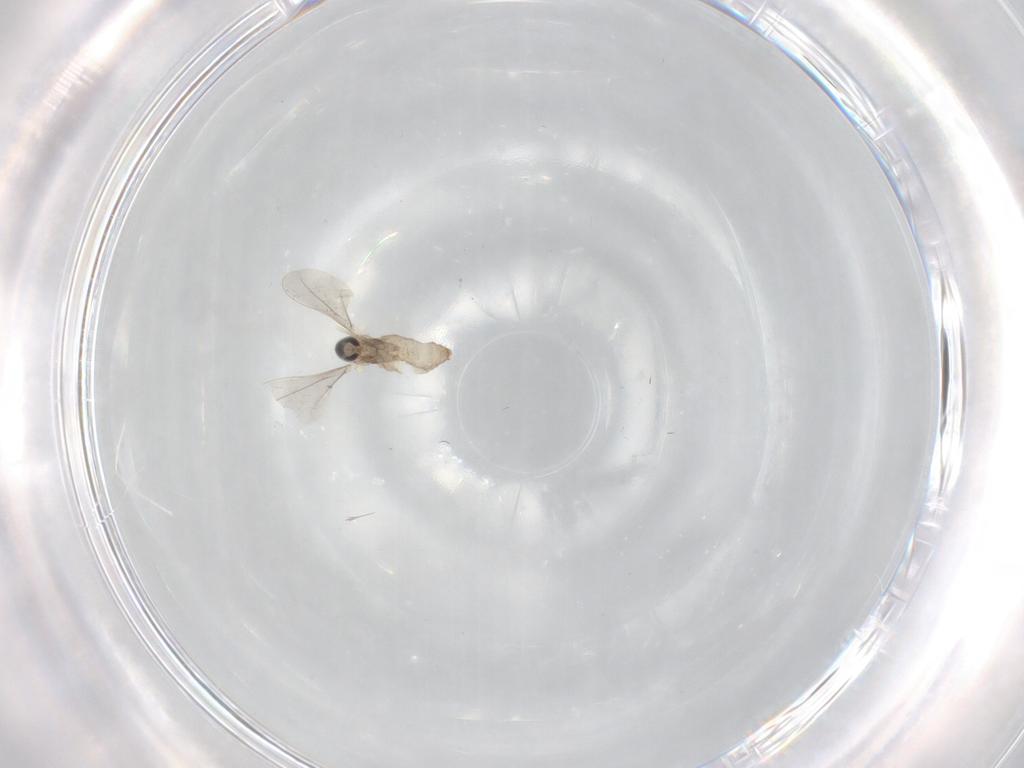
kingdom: Animalia
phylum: Arthropoda
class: Insecta
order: Diptera
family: Cecidomyiidae
